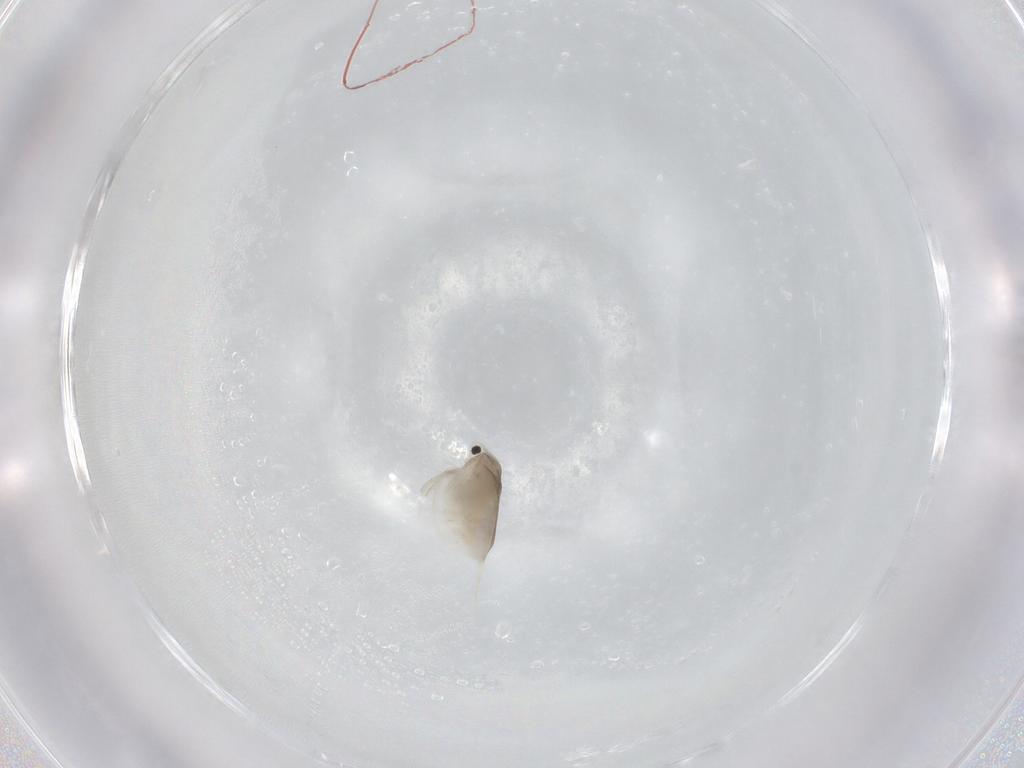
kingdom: Animalia
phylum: Arthropoda
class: Branchiopoda
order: Diplostraca
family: Daphniidae
